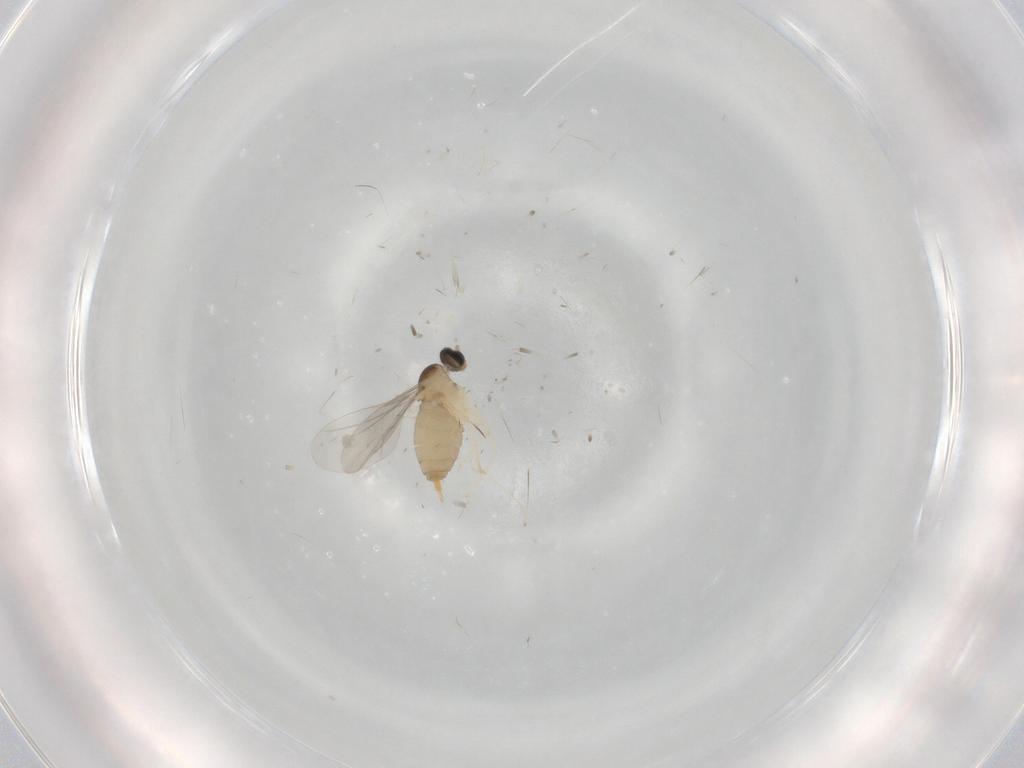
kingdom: Animalia
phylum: Arthropoda
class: Insecta
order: Diptera
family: Cecidomyiidae
